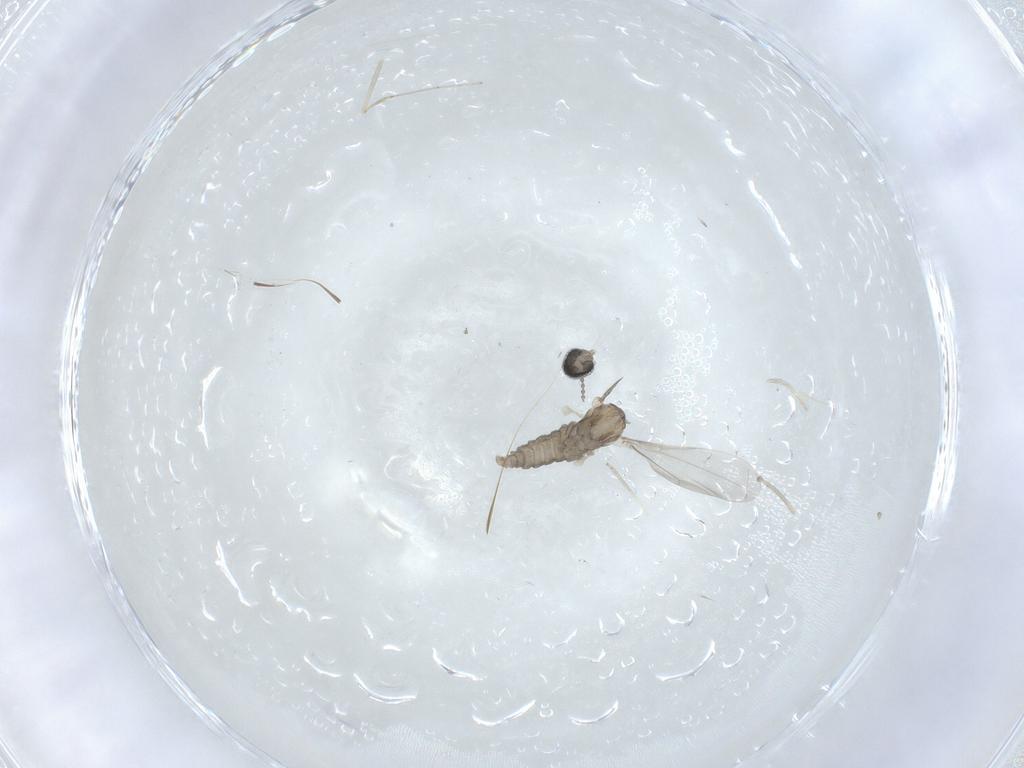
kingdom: Animalia
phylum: Arthropoda
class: Insecta
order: Diptera
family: Cecidomyiidae
